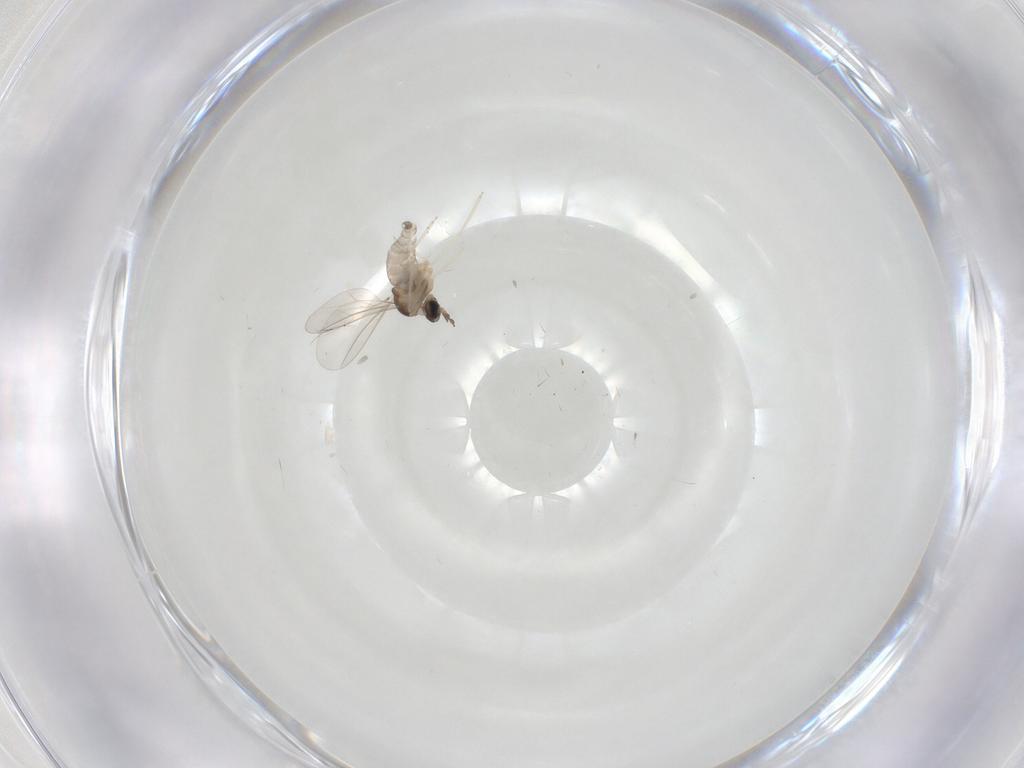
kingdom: Animalia
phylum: Arthropoda
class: Insecta
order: Diptera
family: Cecidomyiidae
